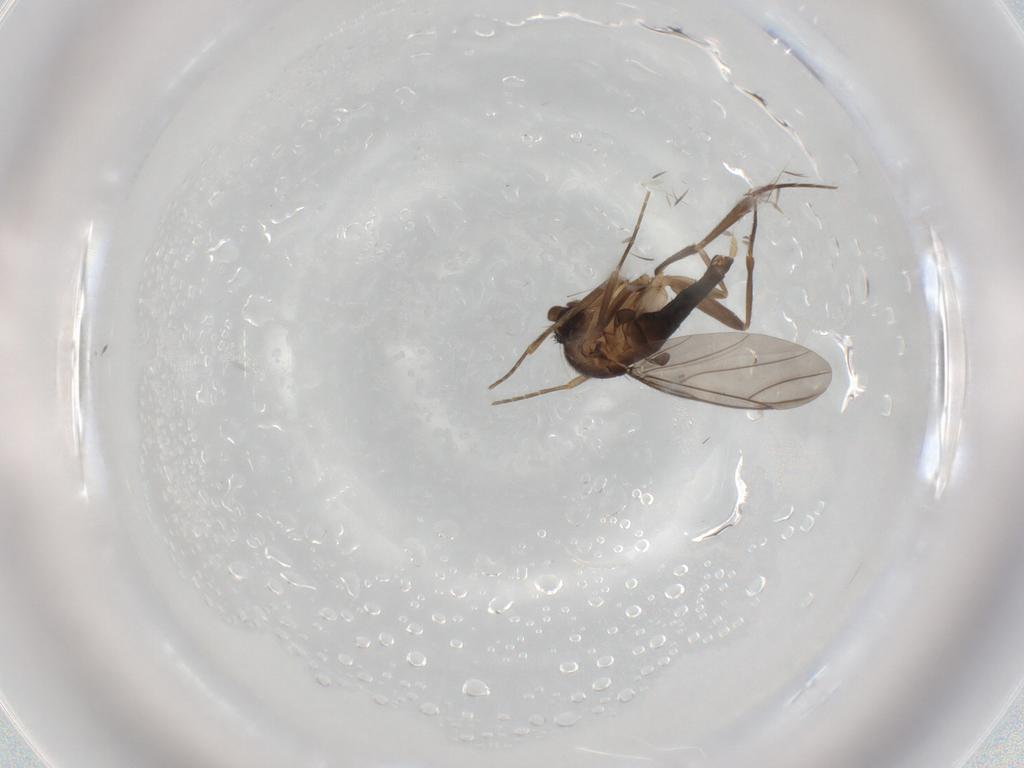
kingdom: Animalia
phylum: Arthropoda
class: Insecta
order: Diptera
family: Phoridae
